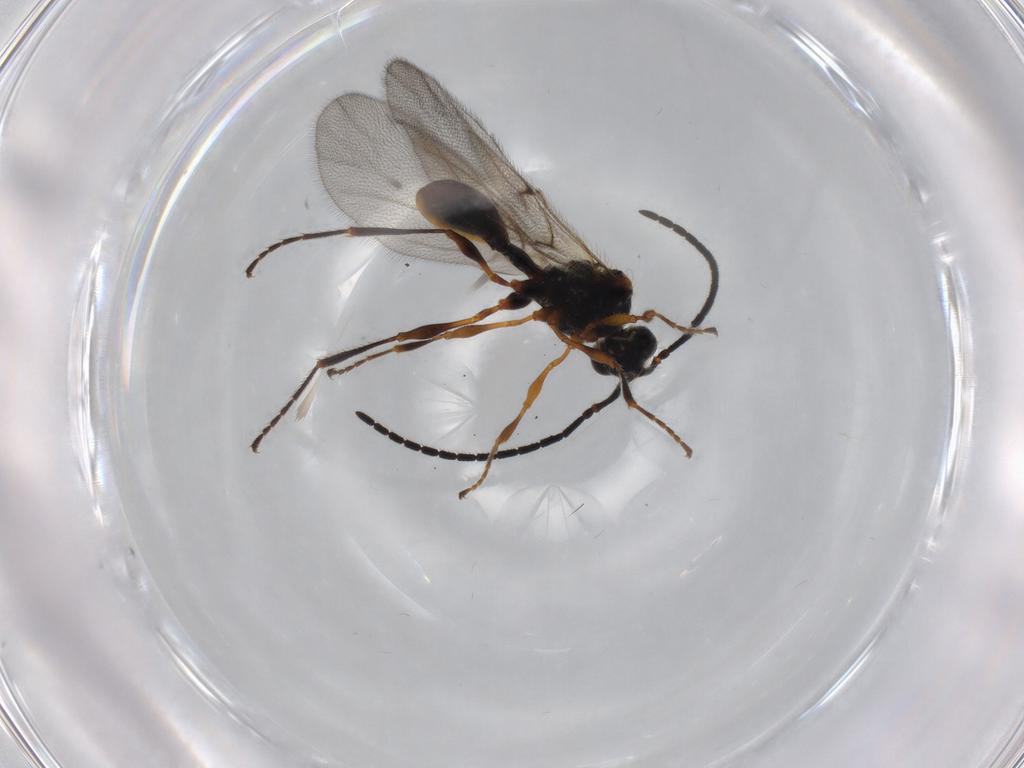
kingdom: Animalia
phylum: Arthropoda
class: Insecta
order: Hymenoptera
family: Diapriidae
